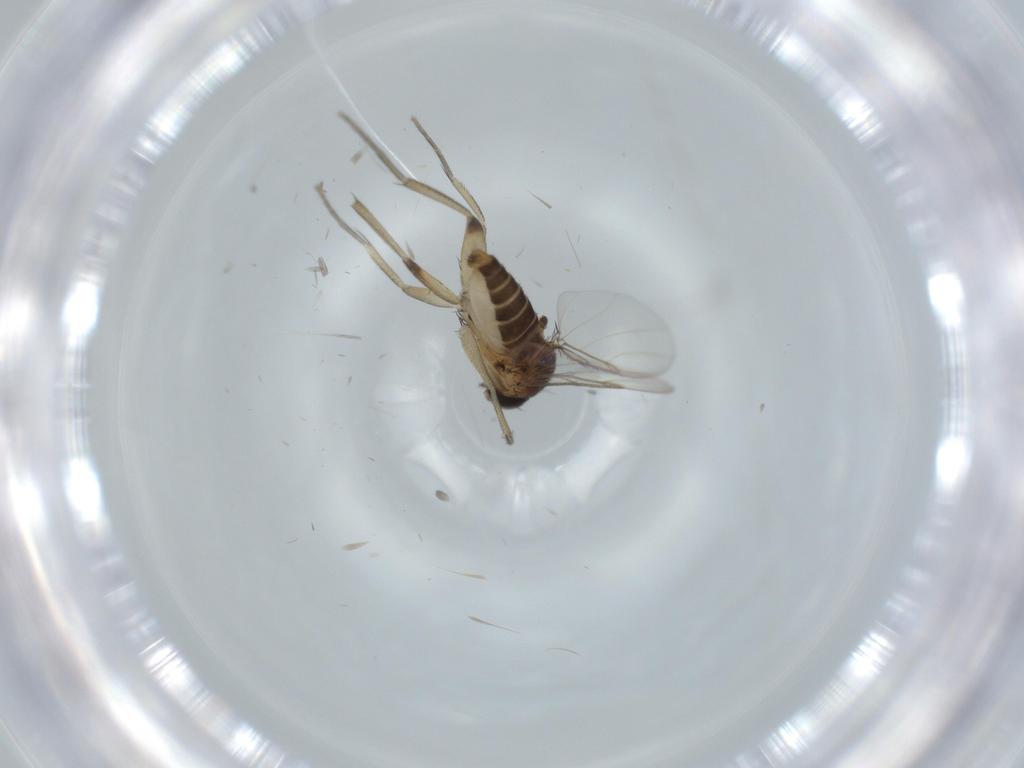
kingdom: Animalia
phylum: Arthropoda
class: Insecta
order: Diptera
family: Phoridae
